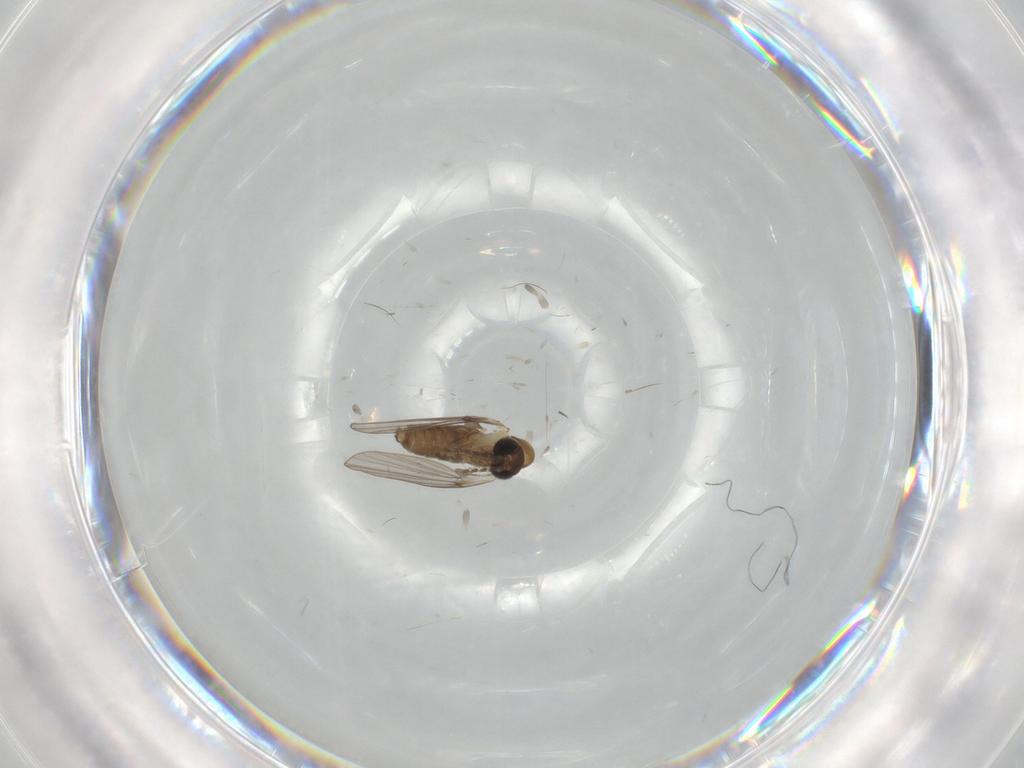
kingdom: Animalia
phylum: Arthropoda
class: Insecta
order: Diptera
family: Psychodidae
